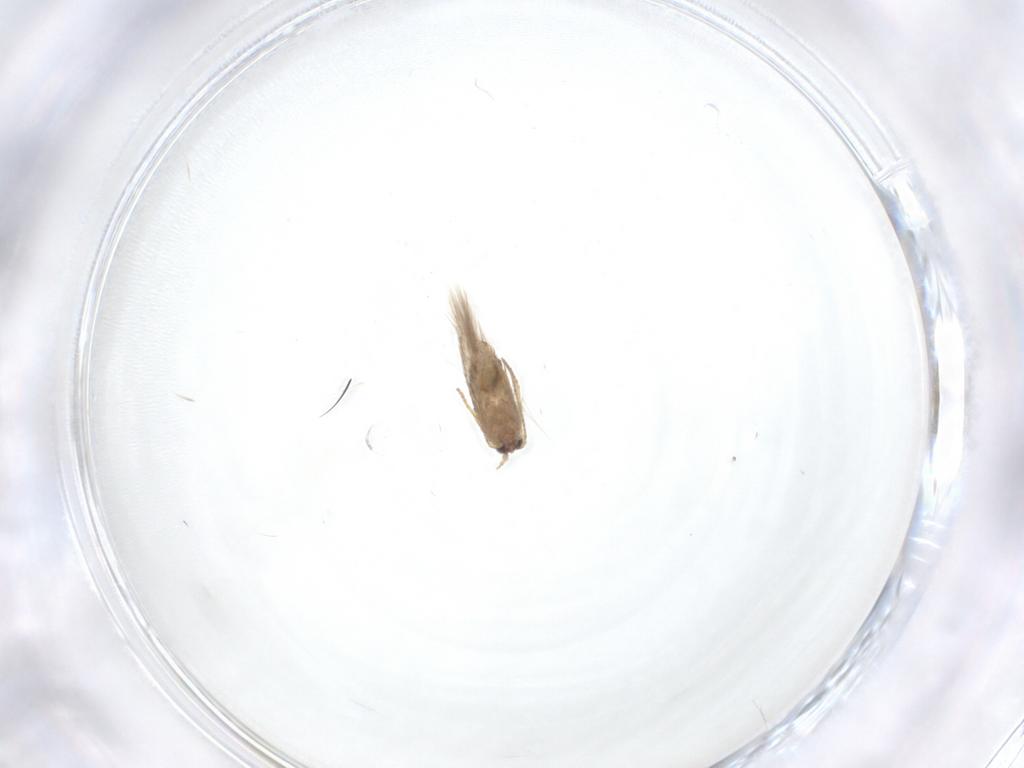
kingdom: Animalia
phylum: Arthropoda
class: Insecta
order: Lepidoptera
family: Nepticulidae
